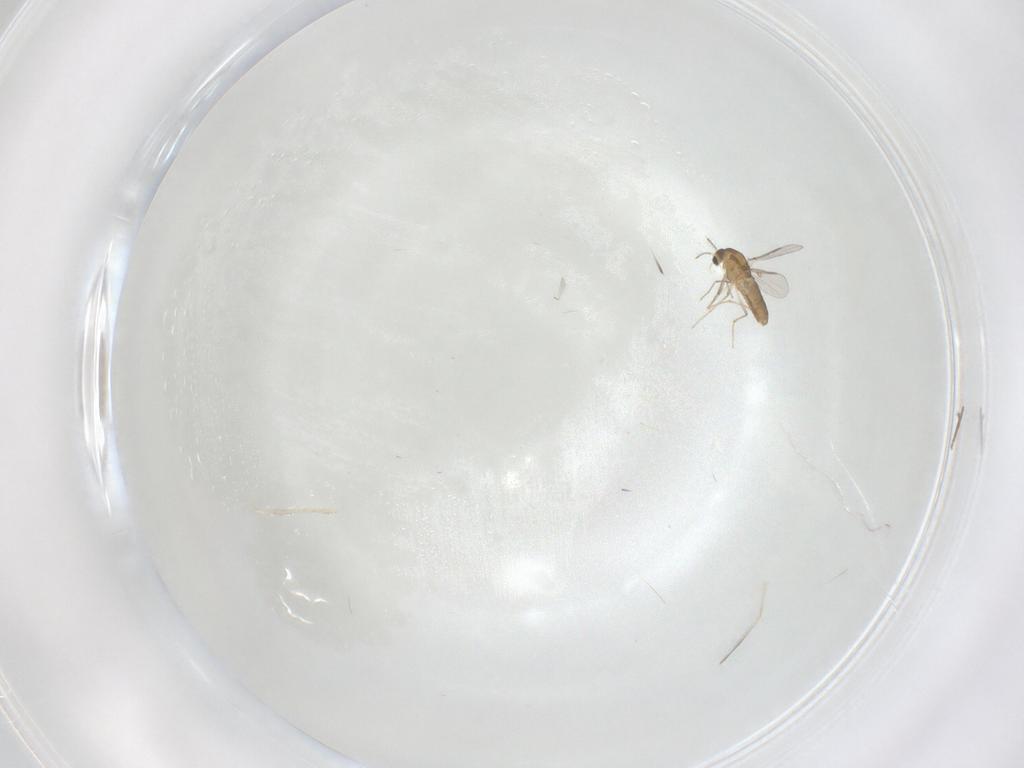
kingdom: Animalia
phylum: Arthropoda
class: Insecta
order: Diptera
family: Chironomidae
